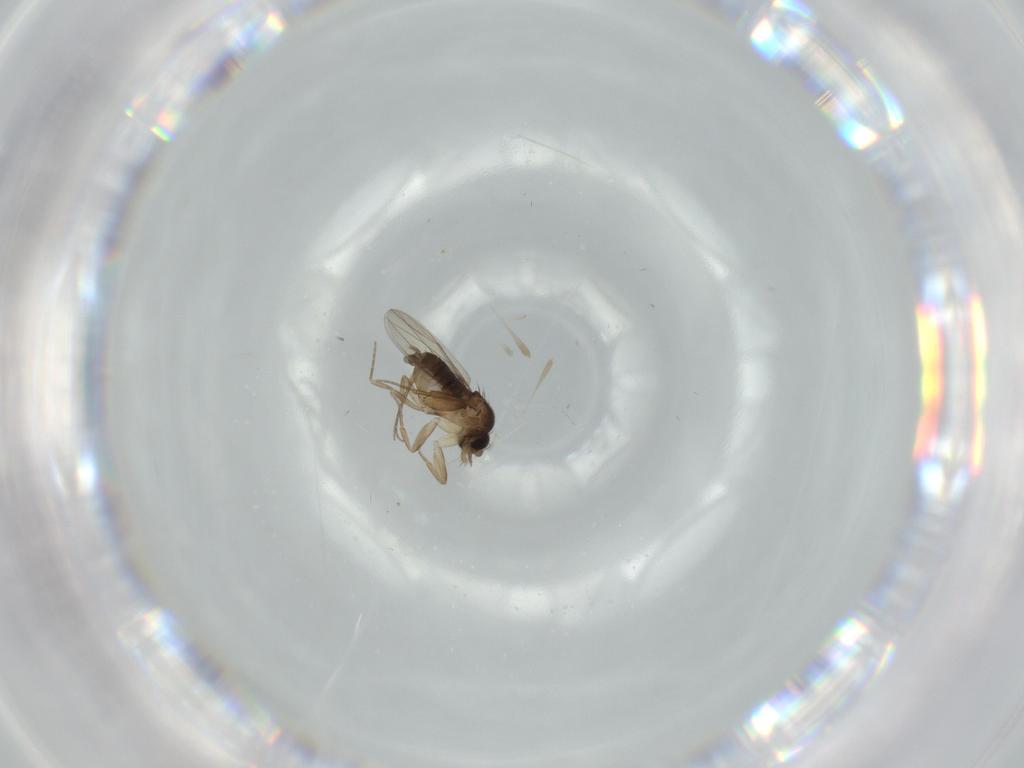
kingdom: Animalia
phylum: Arthropoda
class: Insecta
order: Diptera
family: Phoridae
